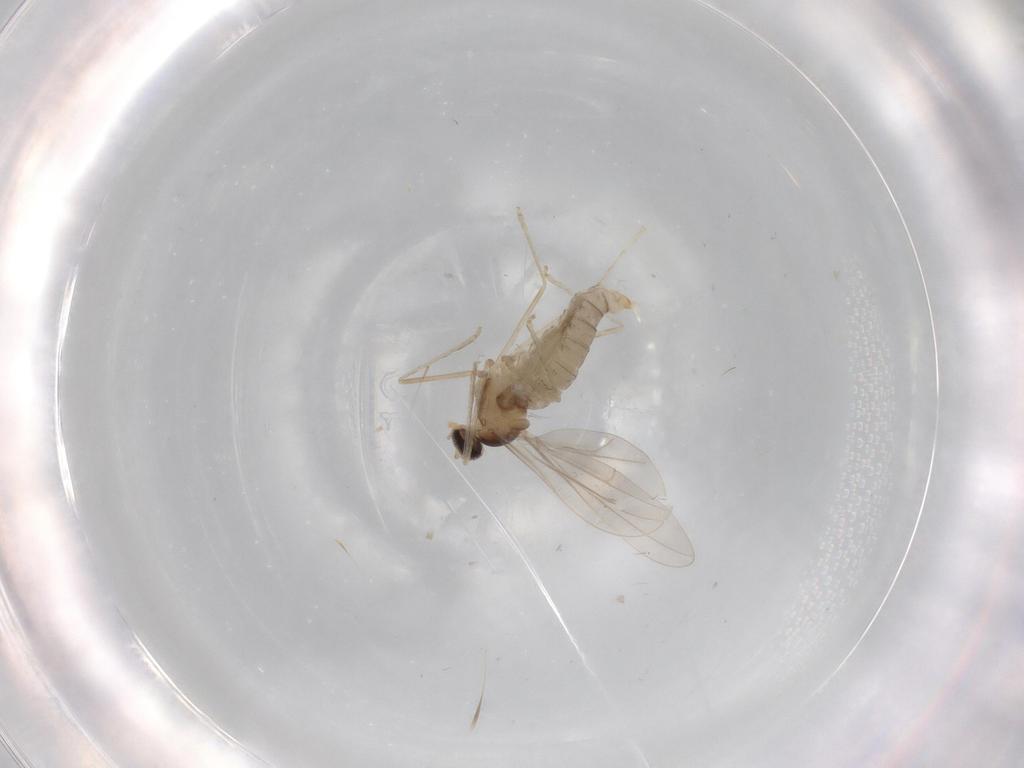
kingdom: Animalia
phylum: Arthropoda
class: Insecta
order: Diptera
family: Cecidomyiidae
